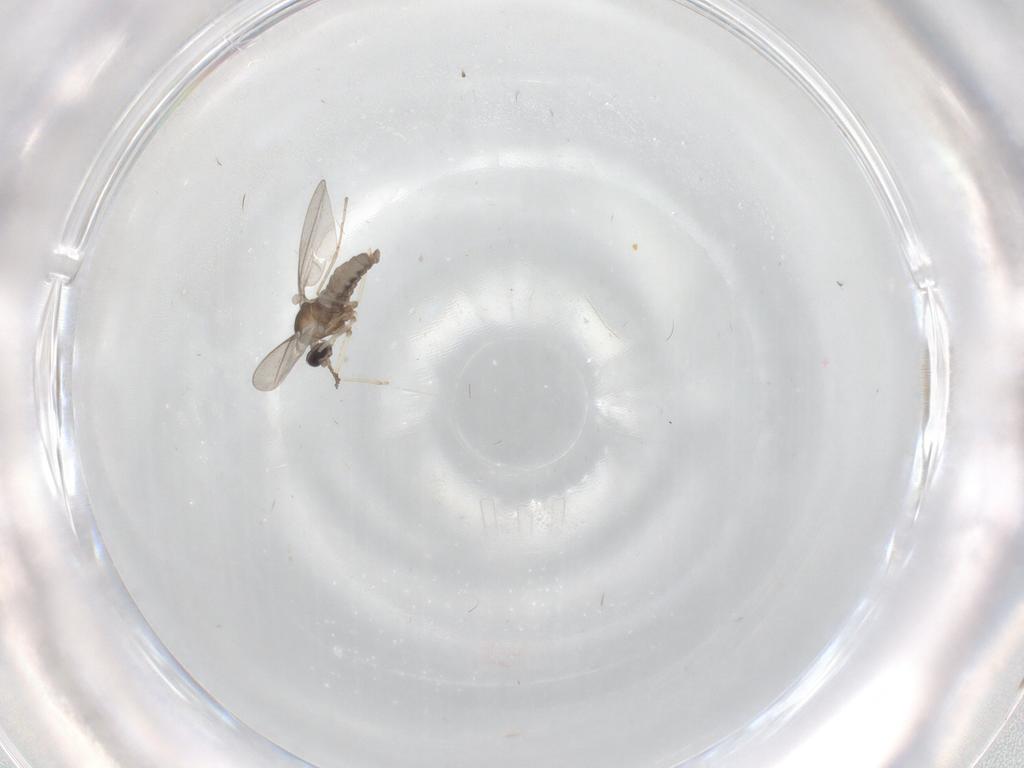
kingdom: Animalia
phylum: Arthropoda
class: Insecta
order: Diptera
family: Cecidomyiidae
